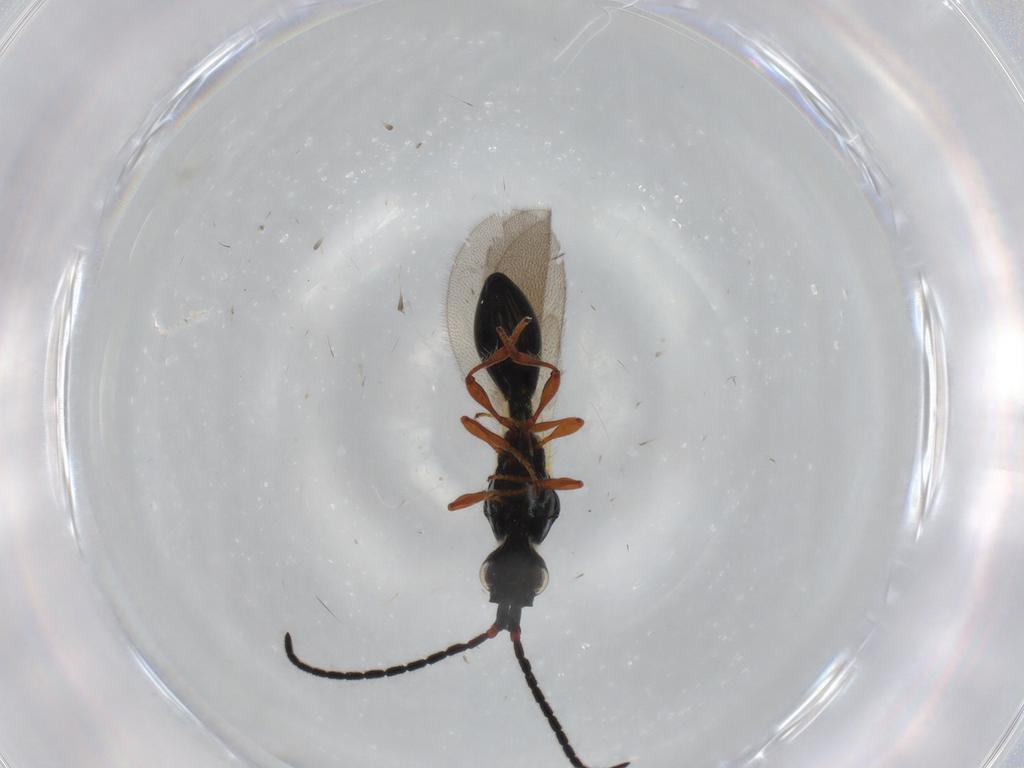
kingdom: Animalia
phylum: Arthropoda
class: Insecta
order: Hymenoptera
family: Diapriidae
